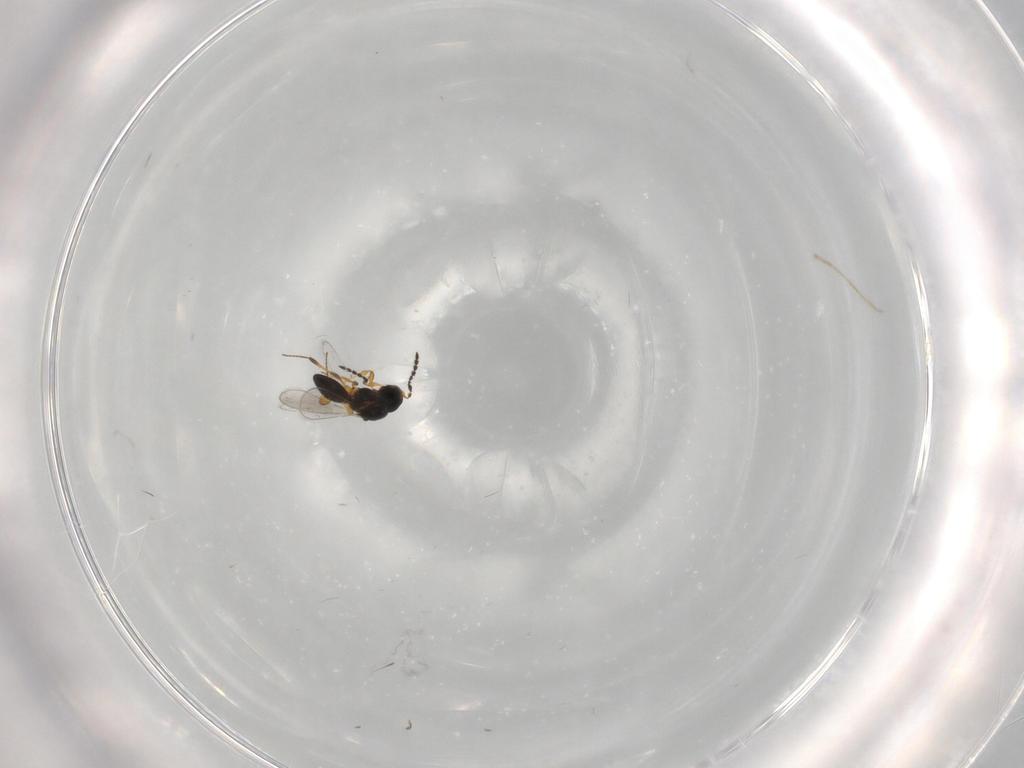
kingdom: Animalia
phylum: Arthropoda
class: Insecta
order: Hymenoptera
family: Platygastridae
